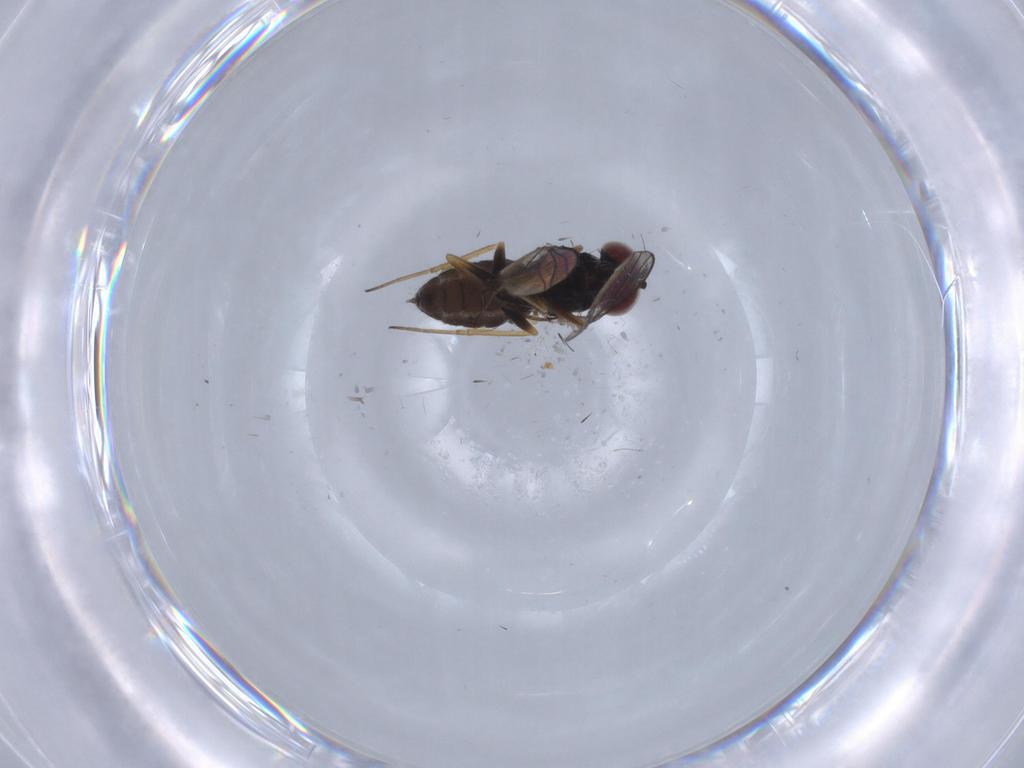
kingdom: Animalia
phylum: Arthropoda
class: Insecta
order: Diptera
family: Dolichopodidae
